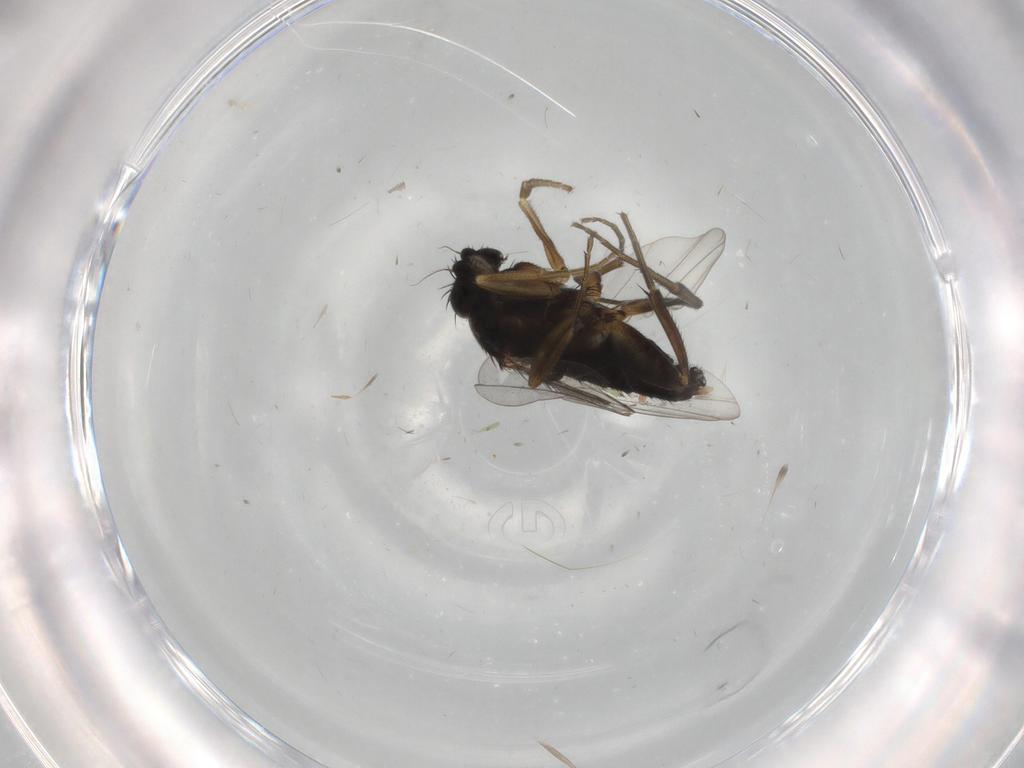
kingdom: Animalia
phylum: Arthropoda
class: Insecta
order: Diptera
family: Phoridae
